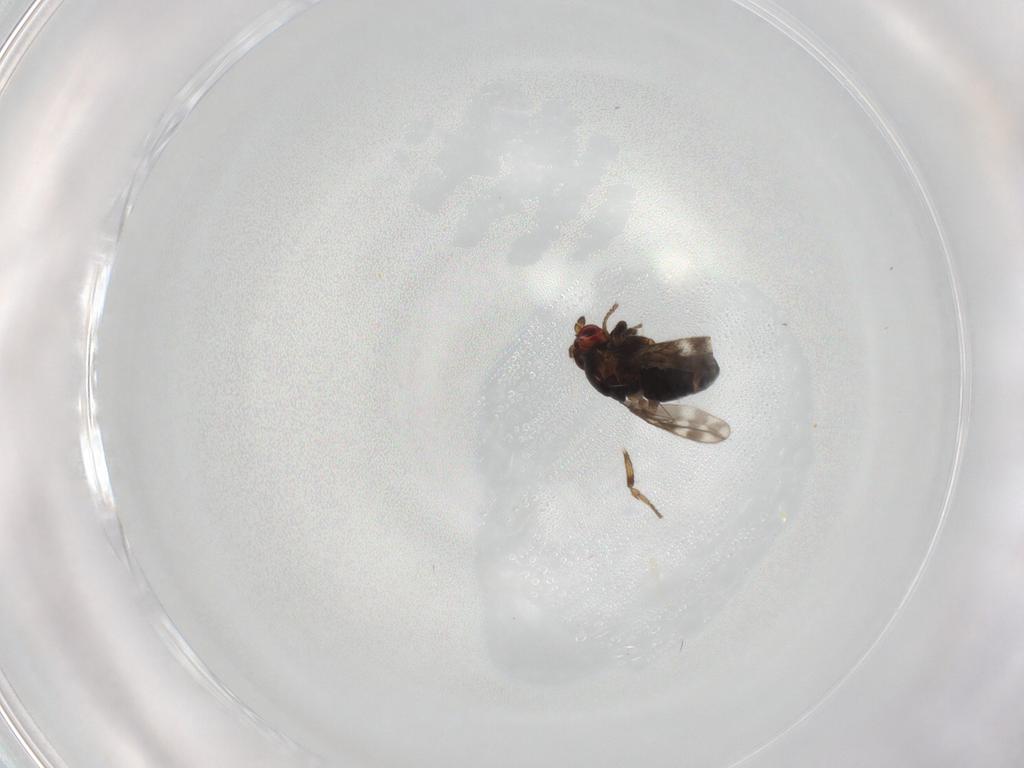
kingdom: Animalia
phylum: Arthropoda
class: Insecta
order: Diptera
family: Sphaeroceridae
